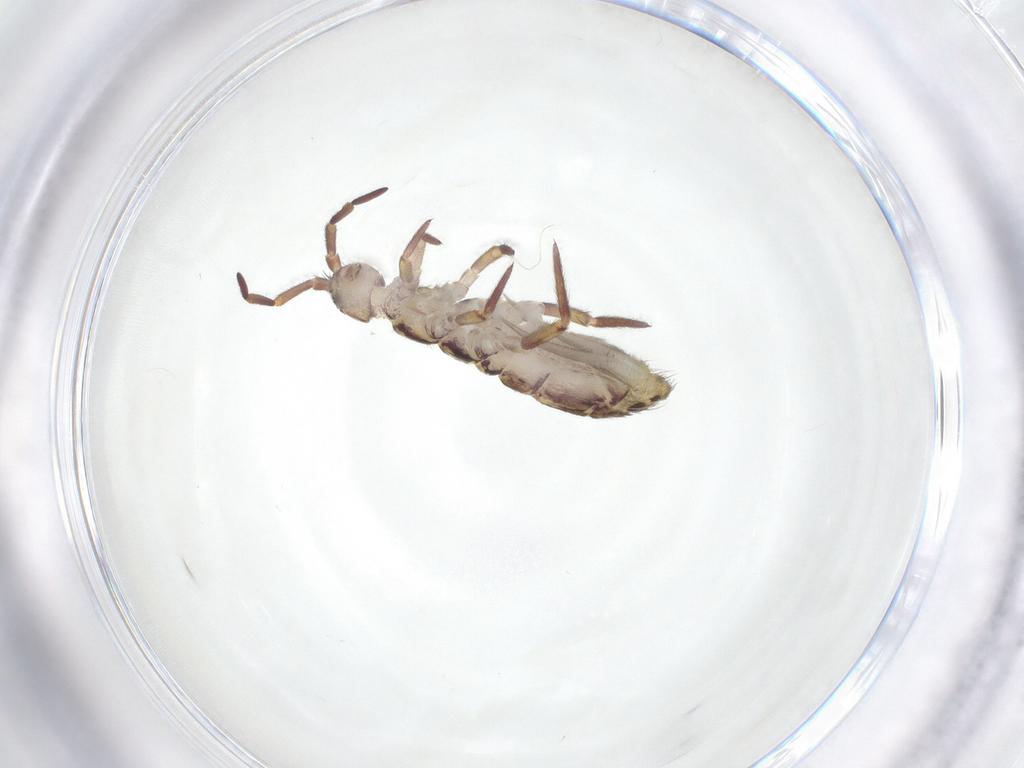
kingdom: Animalia
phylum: Arthropoda
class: Collembola
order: Entomobryomorpha
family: Isotomidae
